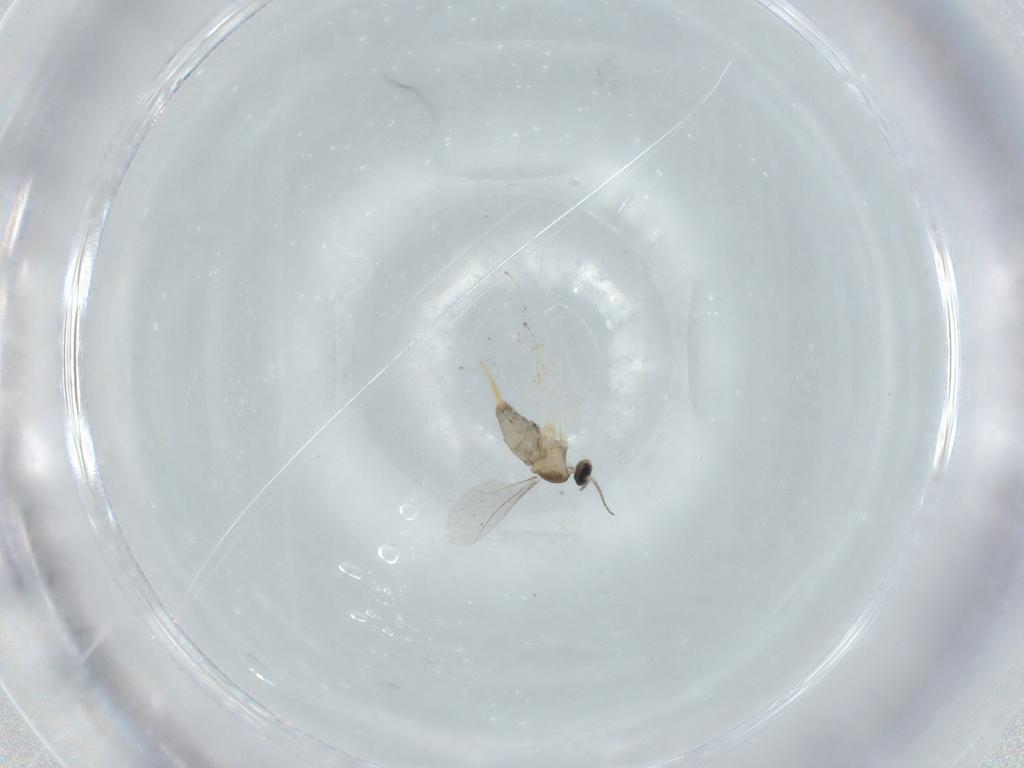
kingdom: Animalia
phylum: Arthropoda
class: Insecta
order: Diptera
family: Cecidomyiidae
